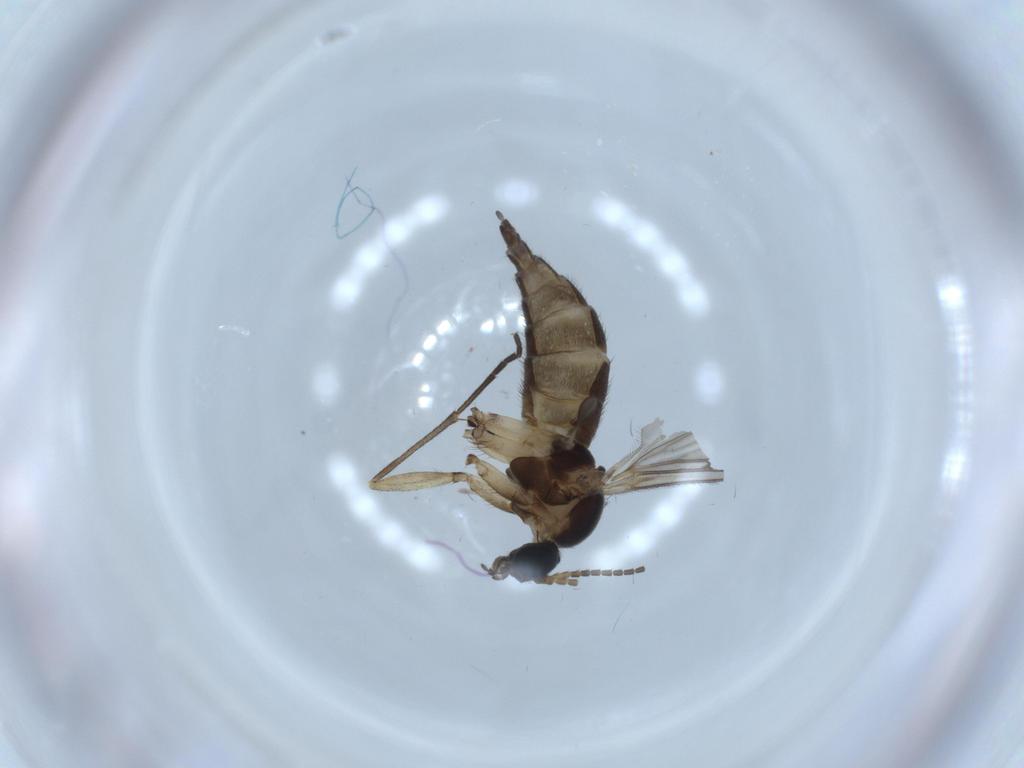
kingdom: Animalia
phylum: Arthropoda
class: Insecta
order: Diptera
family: Sciaridae
